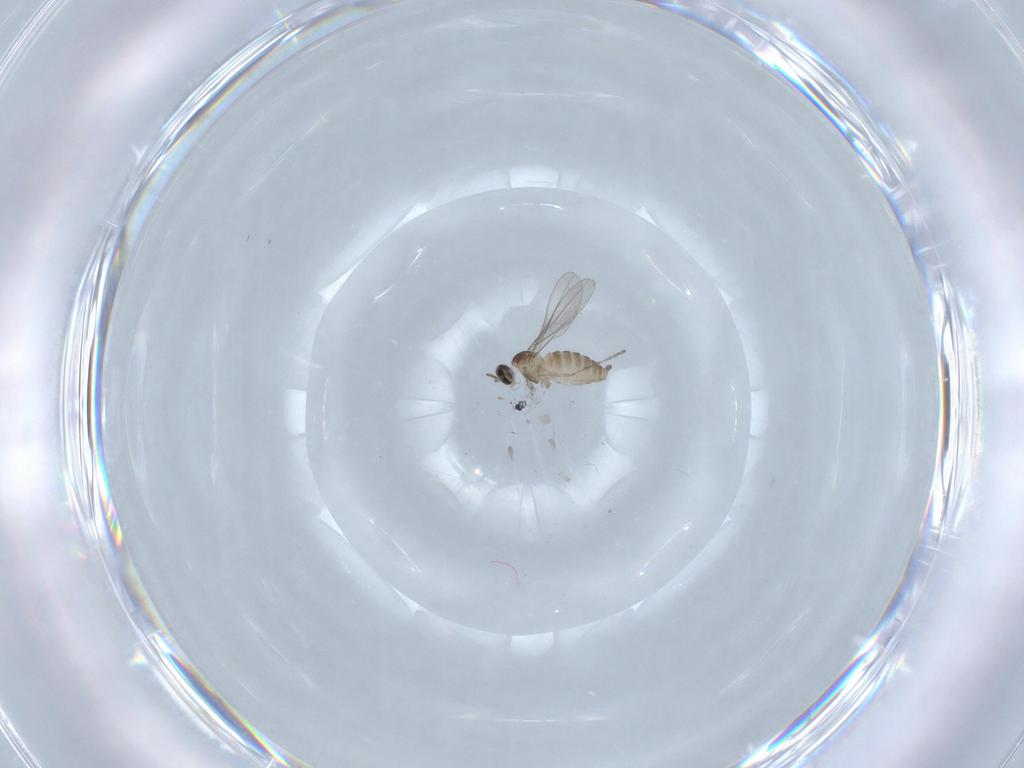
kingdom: Animalia
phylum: Arthropoda
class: Insecta
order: Diptera
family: Cecidomyiidae
